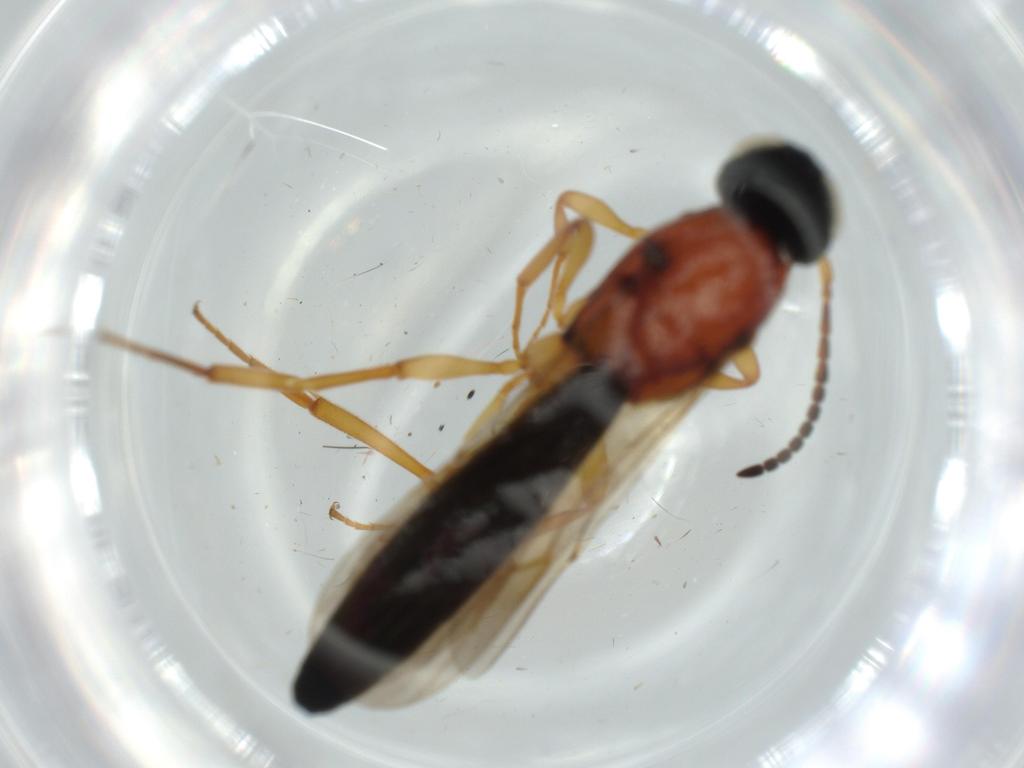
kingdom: Animalia
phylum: Arthropoda
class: Insecta
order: Hymenoptera
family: Scelionidae
